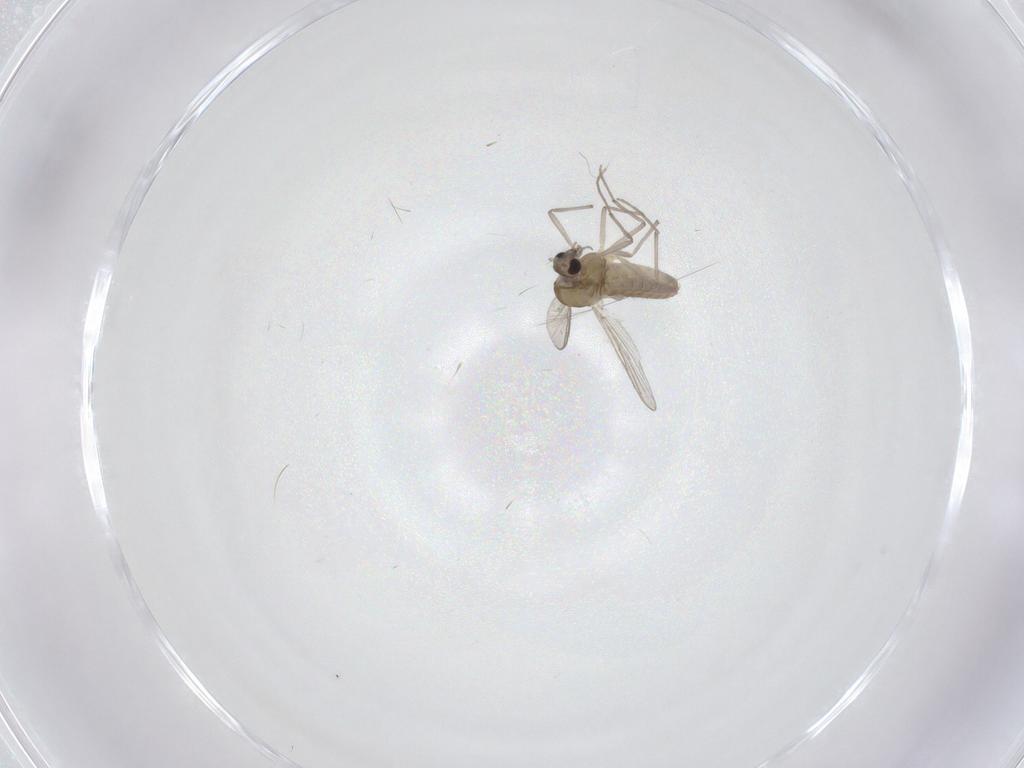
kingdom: Animalia
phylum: Arthropoda
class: Insecta
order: Diptera
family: Chironomidae
